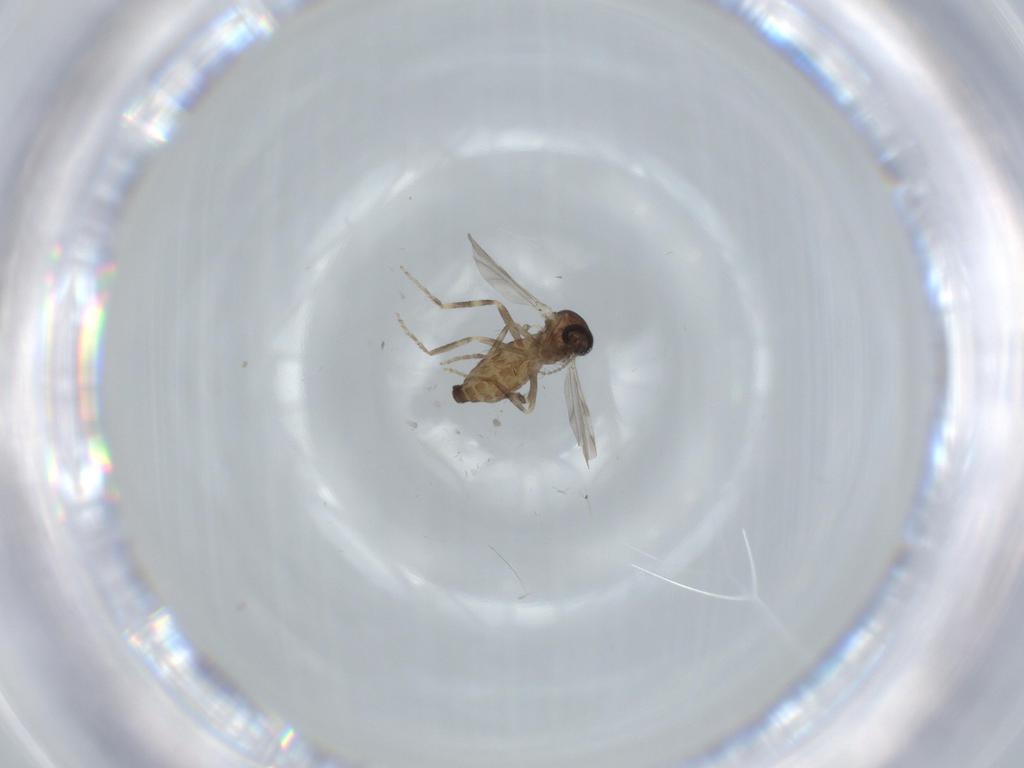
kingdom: Animalia
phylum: Arthropoda
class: Insecta
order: Diptera
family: Ceratopogonidae
